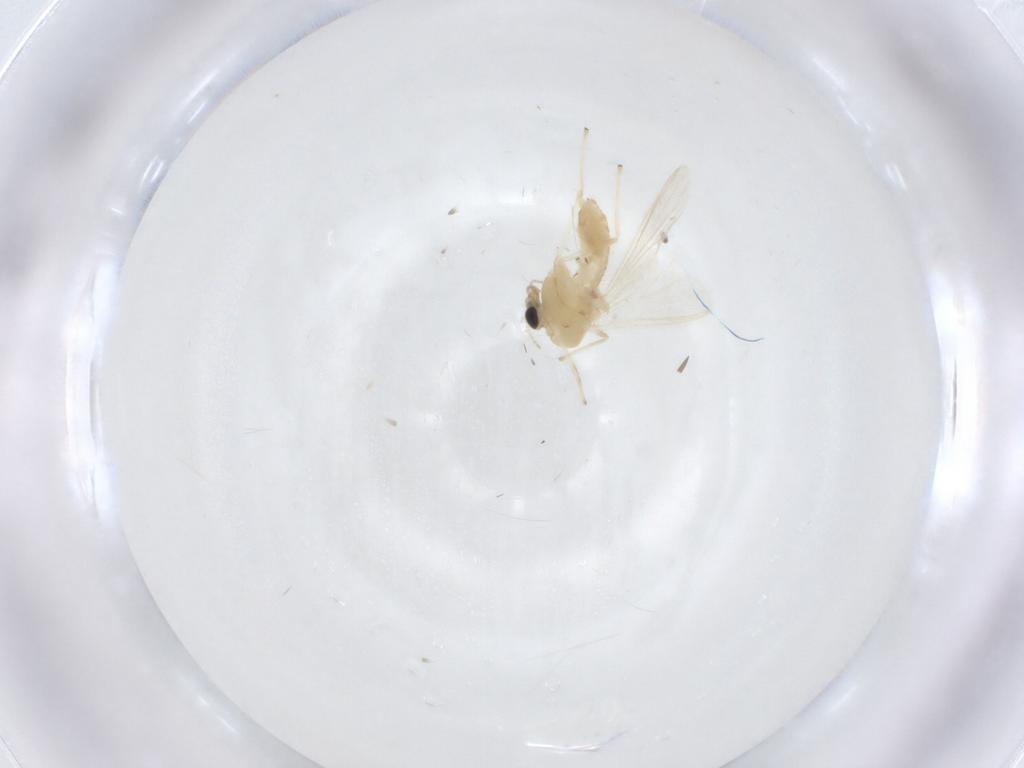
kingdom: Animalia
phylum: Arthropoda
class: Insecta
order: Diptera
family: Chironomidae
